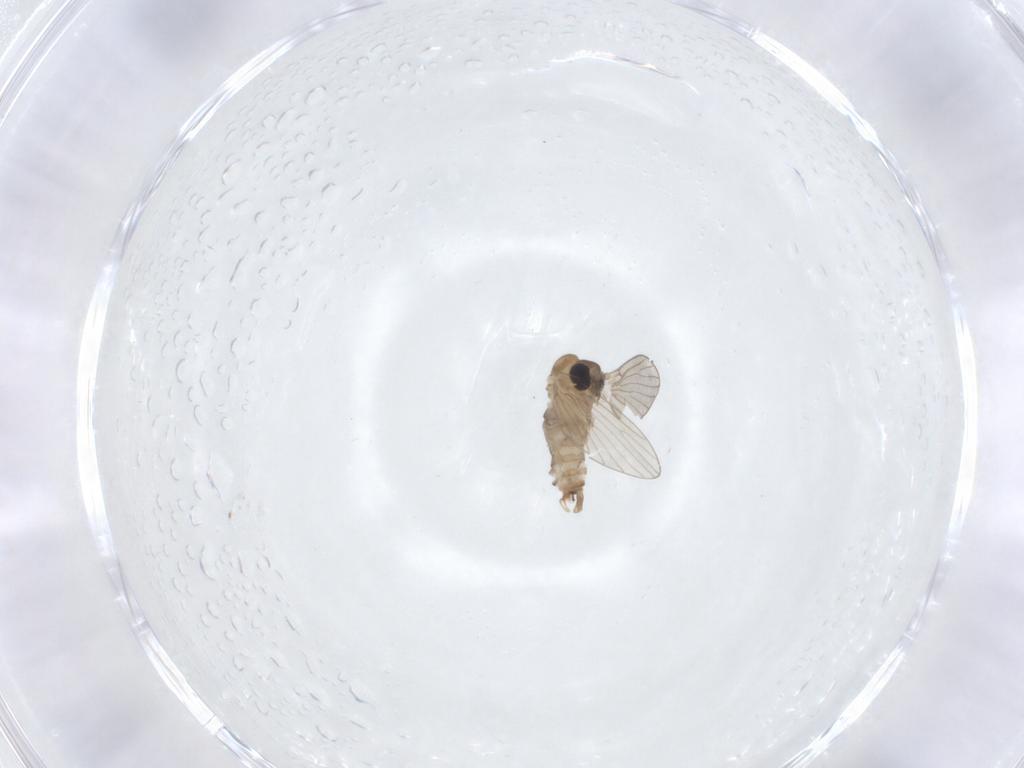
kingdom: Animalia
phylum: Arthropoda
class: Insecta
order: Diptera
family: Psychodidae
